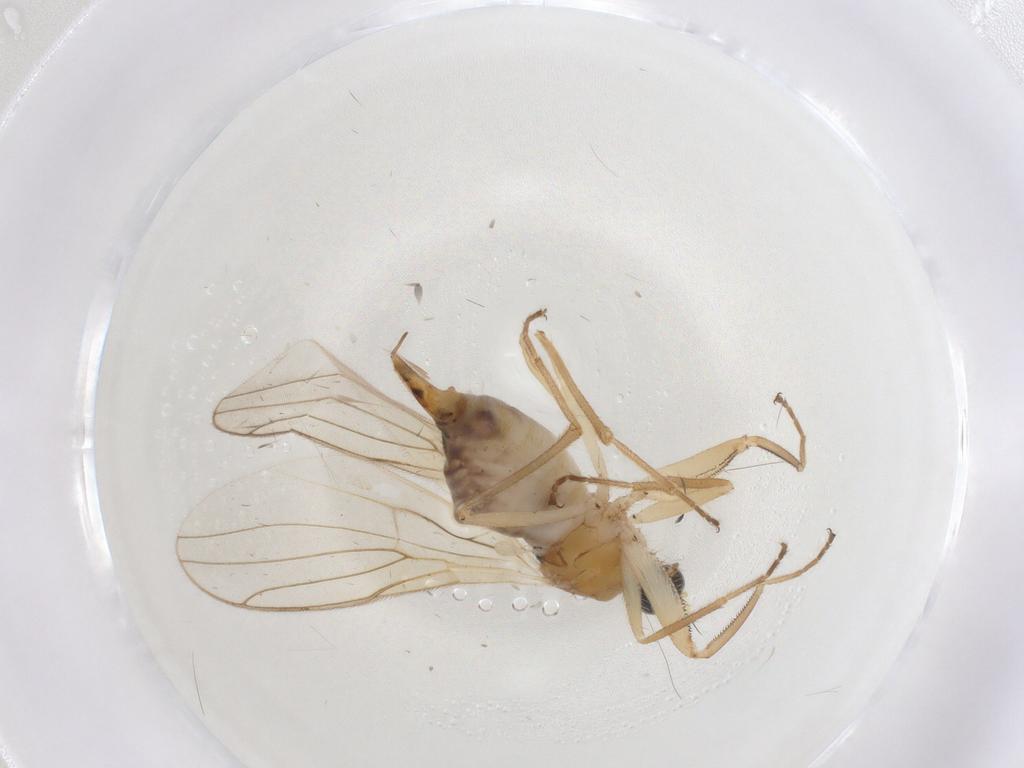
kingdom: Animalia
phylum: Arthropoda
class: Insecta
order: Diptera
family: Hybotidae
